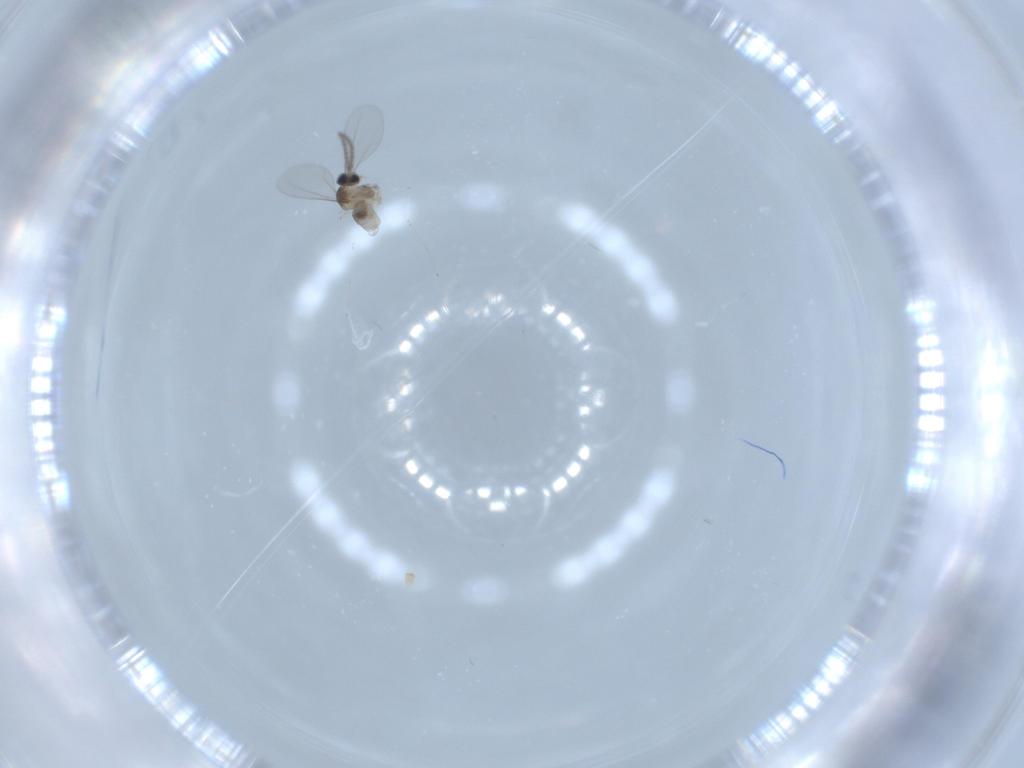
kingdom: Animalia
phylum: Arthropoda
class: Insecta
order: Diptera
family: Chironomidae
